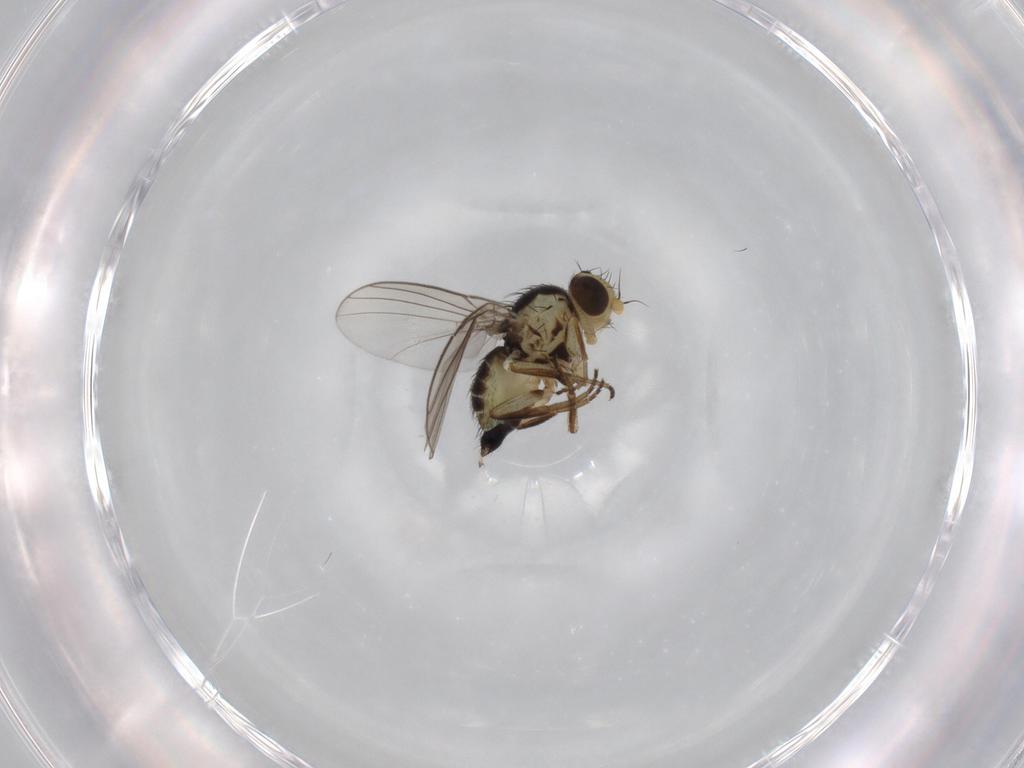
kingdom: Animalia
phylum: Arthropoda
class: Insecta
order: Diptera
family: Agromyzidae
